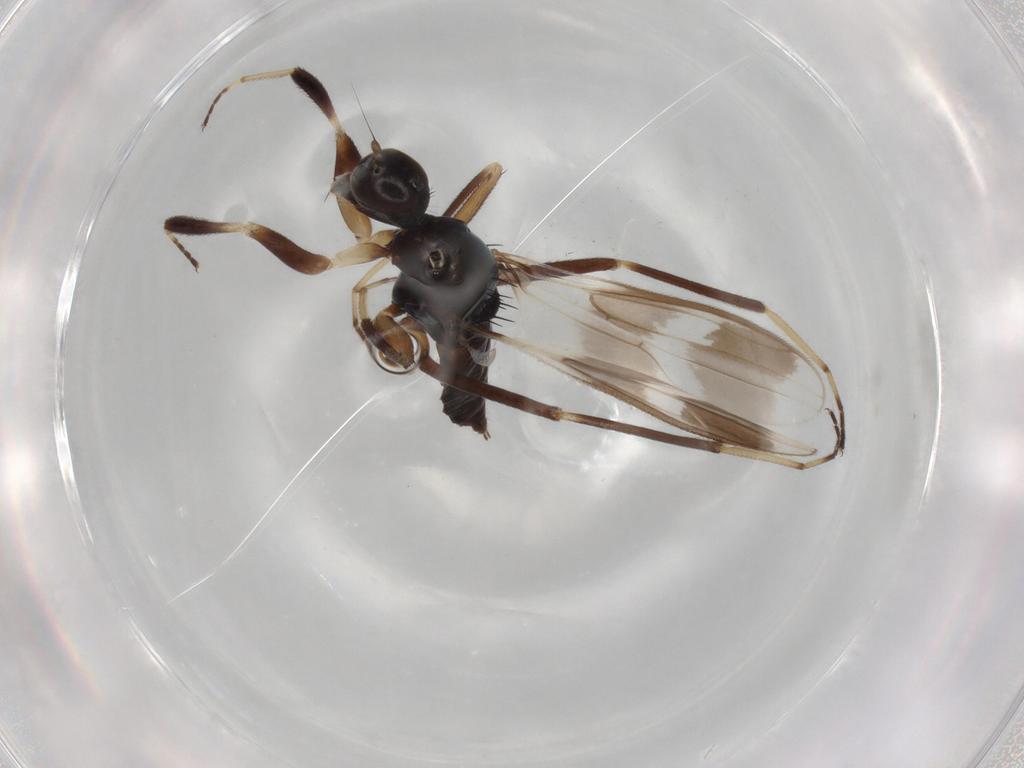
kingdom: Animalia
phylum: Arthropoda
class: Insecta
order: Diptera
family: Hybotidae
